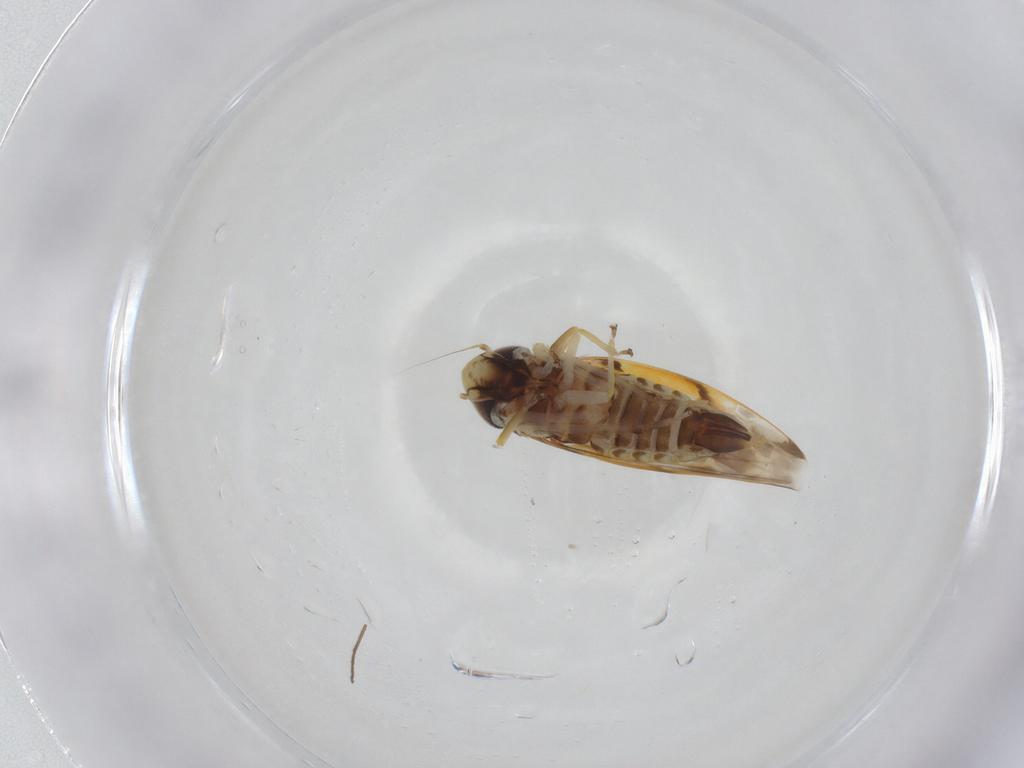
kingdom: Animalia
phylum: Arthropoda
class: Insecta
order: Hemiptera
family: Cicadellidae
